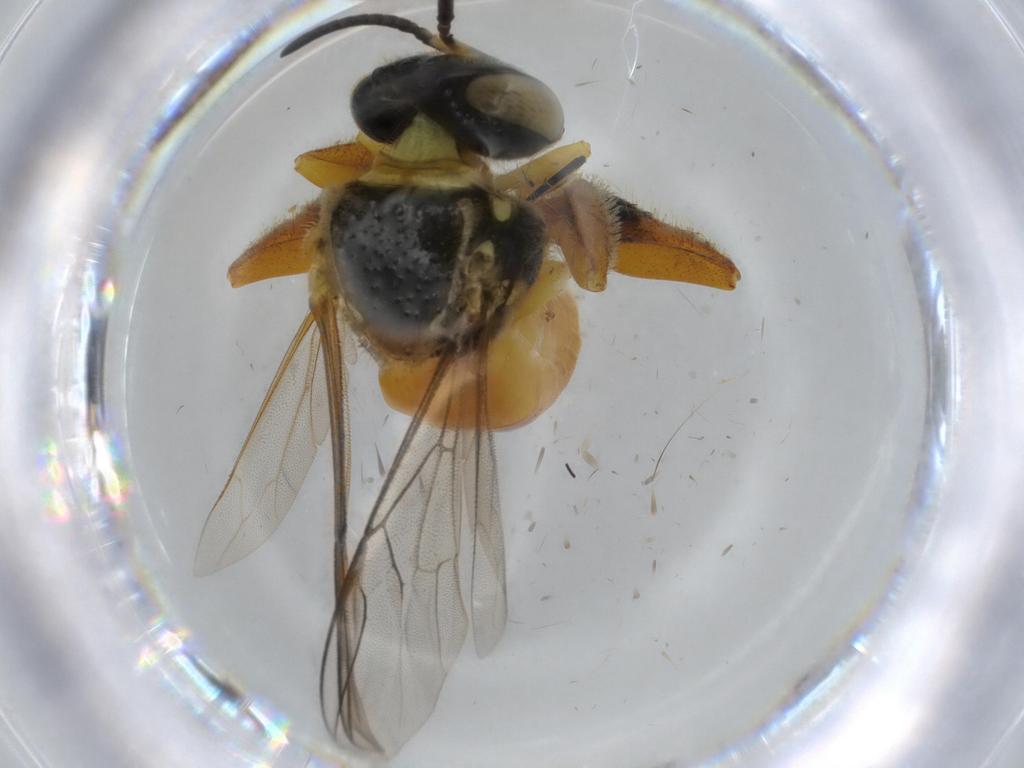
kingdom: Animalia
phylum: Arthropoda
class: Insecta
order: Hymenoptera
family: Apidae
